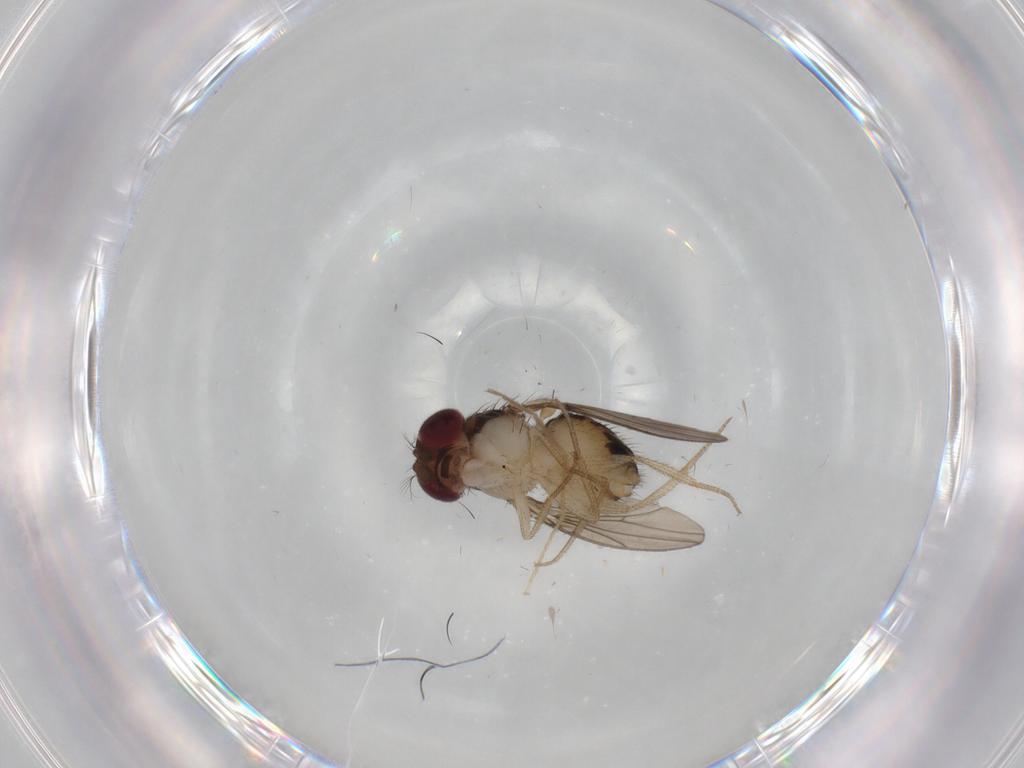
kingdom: Animalia
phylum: Arthropoda
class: Insecta
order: Diptera
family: Drosophilidae
